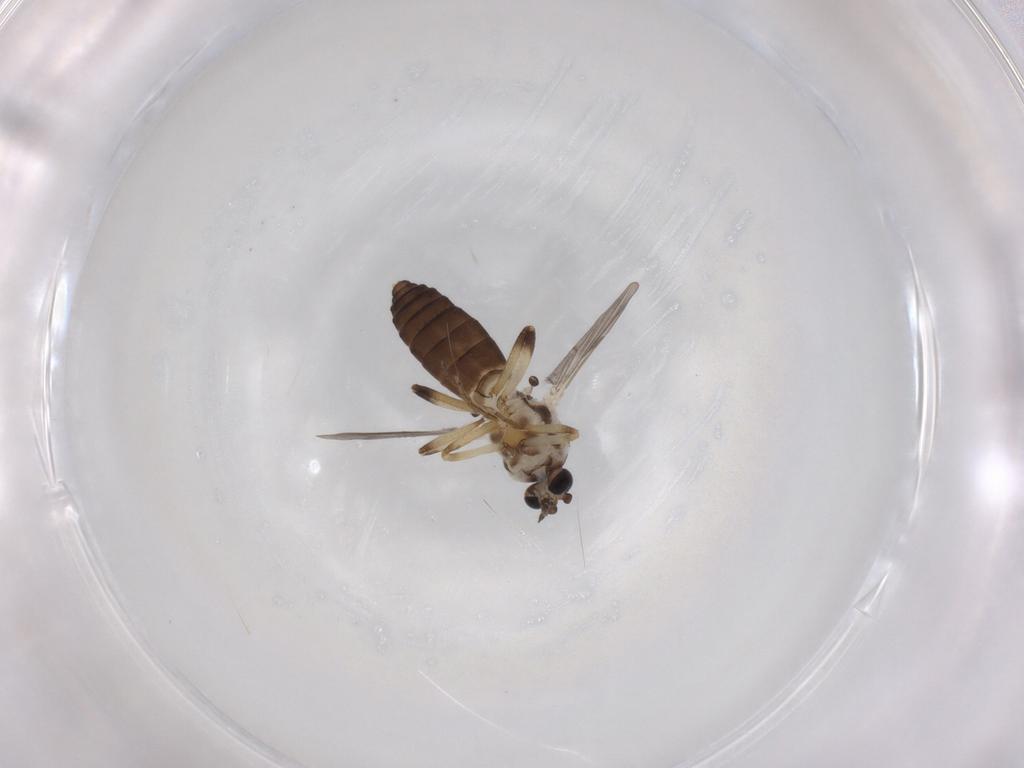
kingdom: Animalia
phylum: Arthropoda
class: Insecta
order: Diptera
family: Ceratopogonidae
